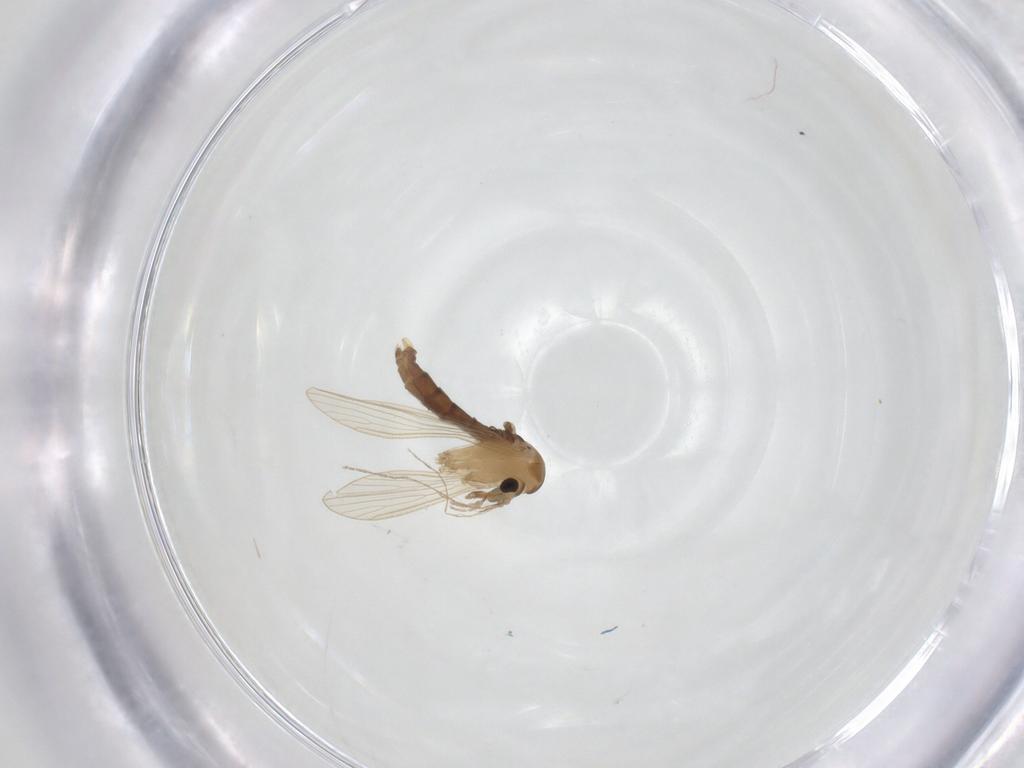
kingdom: Animalia
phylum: Arthropoda
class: Insecta
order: Diptera
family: Psychodidae
